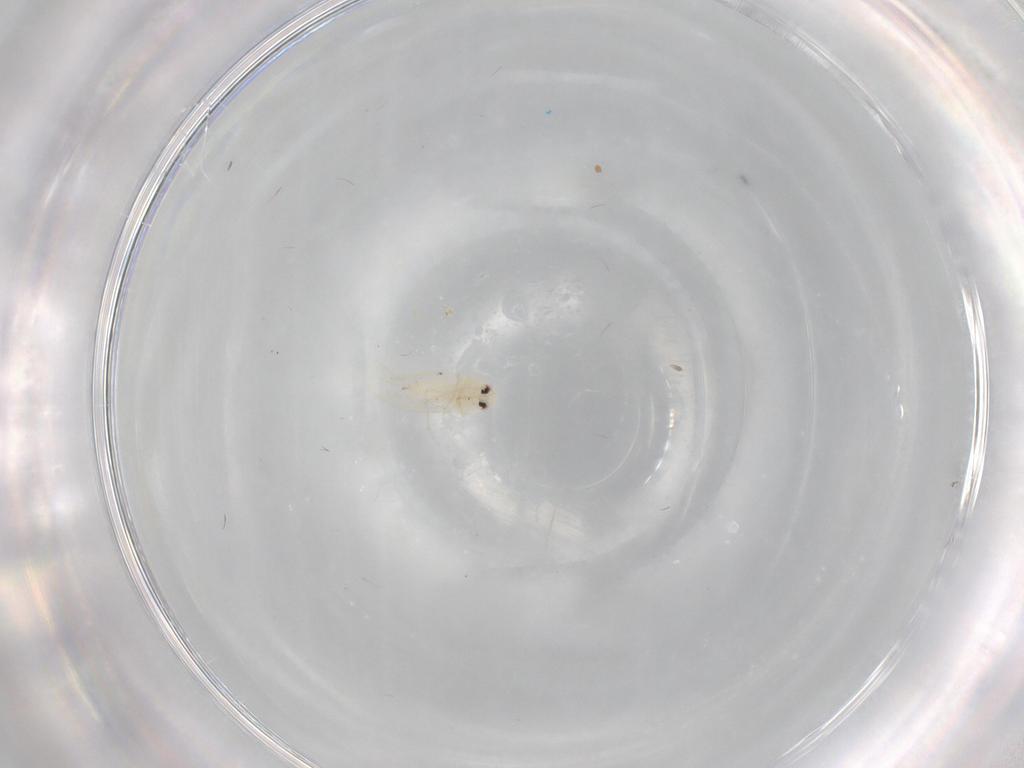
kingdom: Animalia
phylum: Arthropoda
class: Insecta
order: Hemiptera
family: Aleyrodidae
